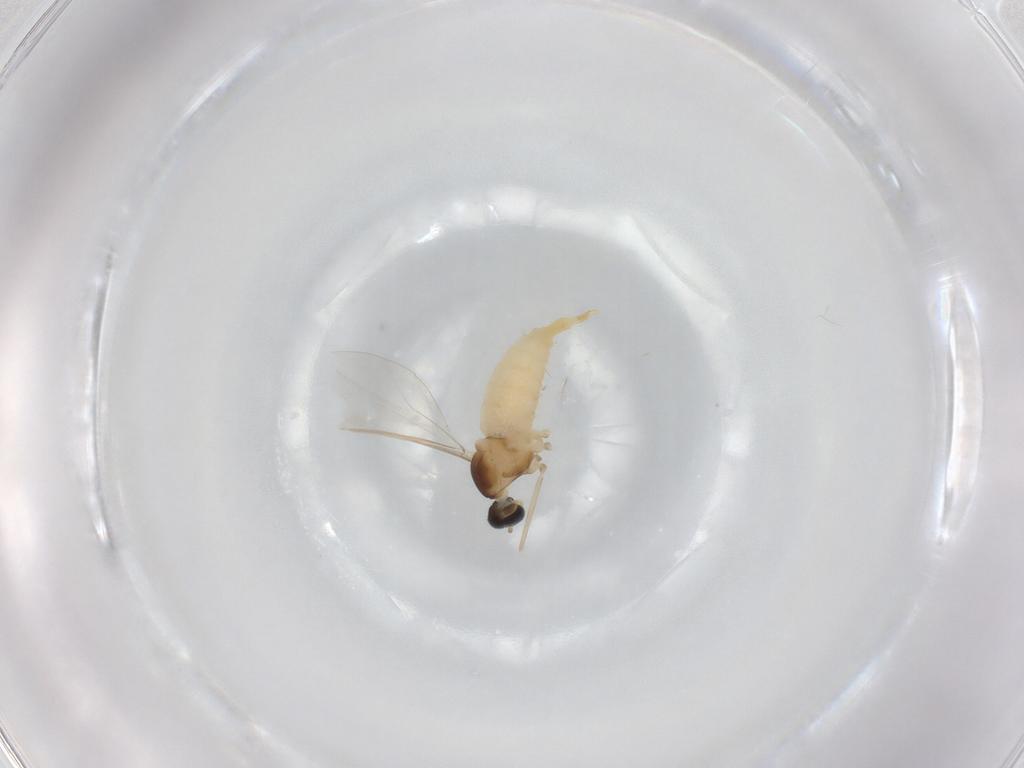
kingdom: Animalia
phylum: Arthropoda
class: Insecta
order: Diptera
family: Cecidomyiidae
